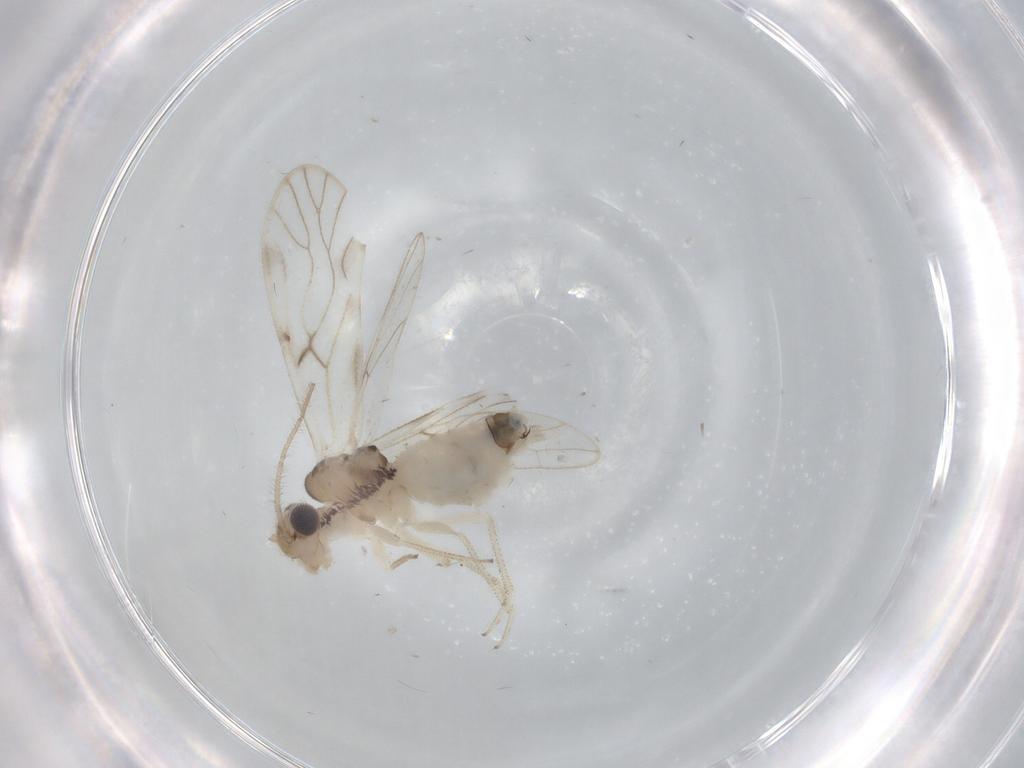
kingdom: Animalia
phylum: Arthropoda
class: Insecta
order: Psocodea
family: Caeciliusidae
